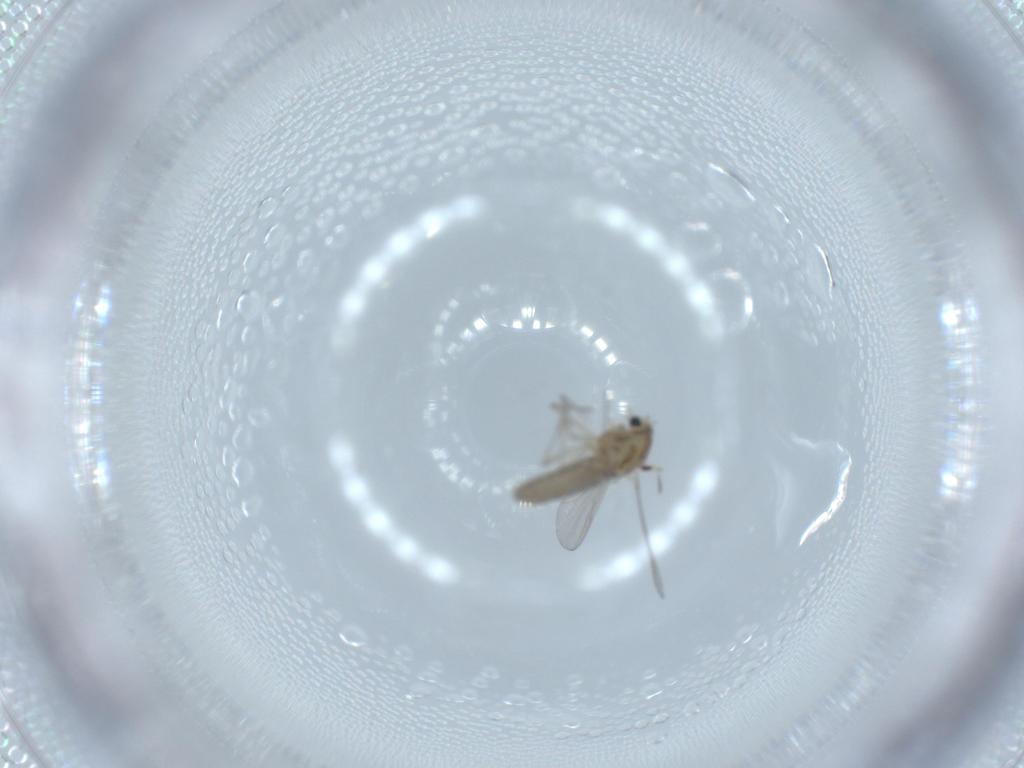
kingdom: Animalia
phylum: Arthropoda
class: Insecta
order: Diptera
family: Chironomidae
